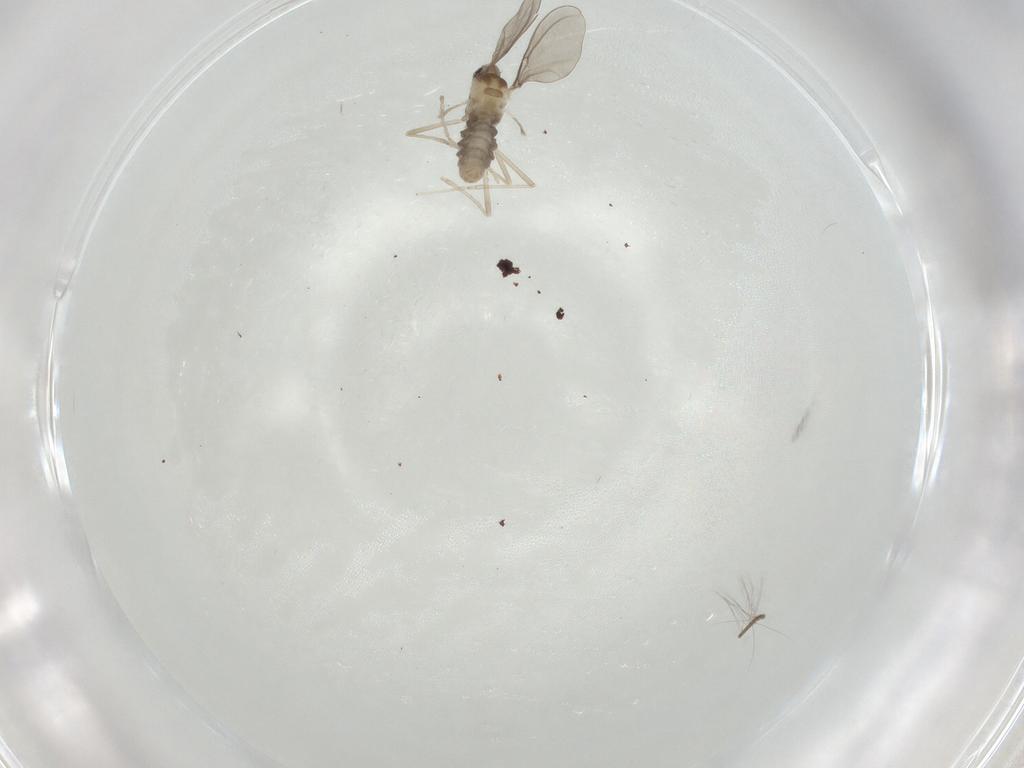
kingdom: Animalia
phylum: Arthropoda
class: Insecta
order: Diptera
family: Cecidomyiidae
